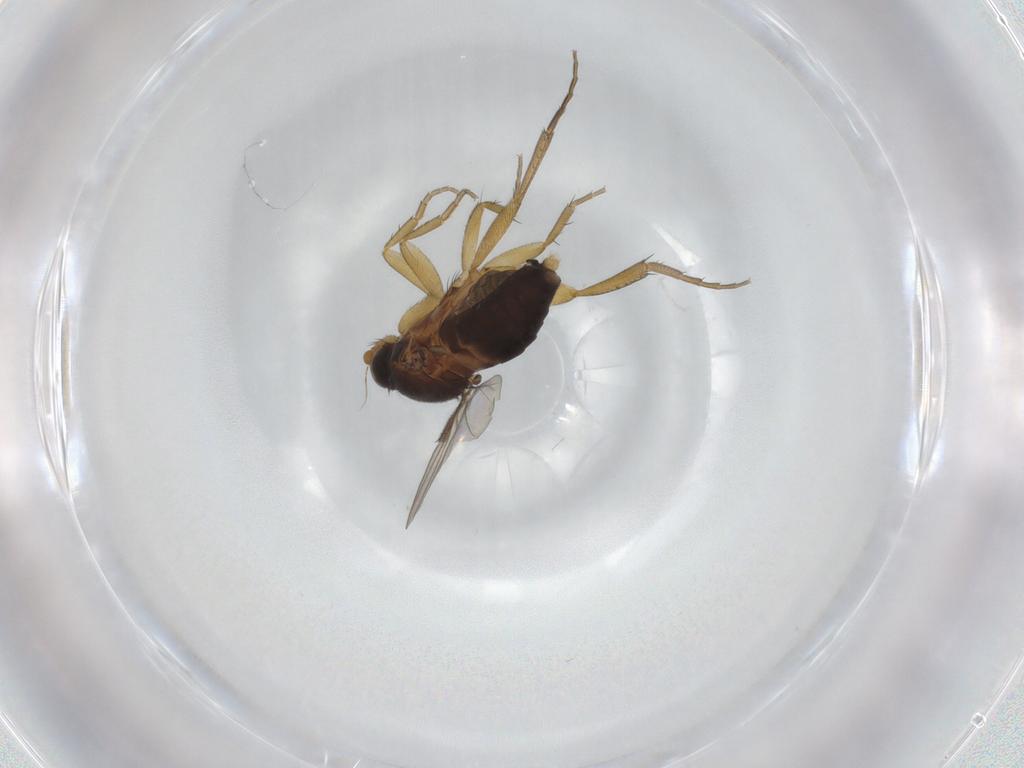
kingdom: Animalia
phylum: Arthropoda
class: Insecta
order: Diptera
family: Phoridae
